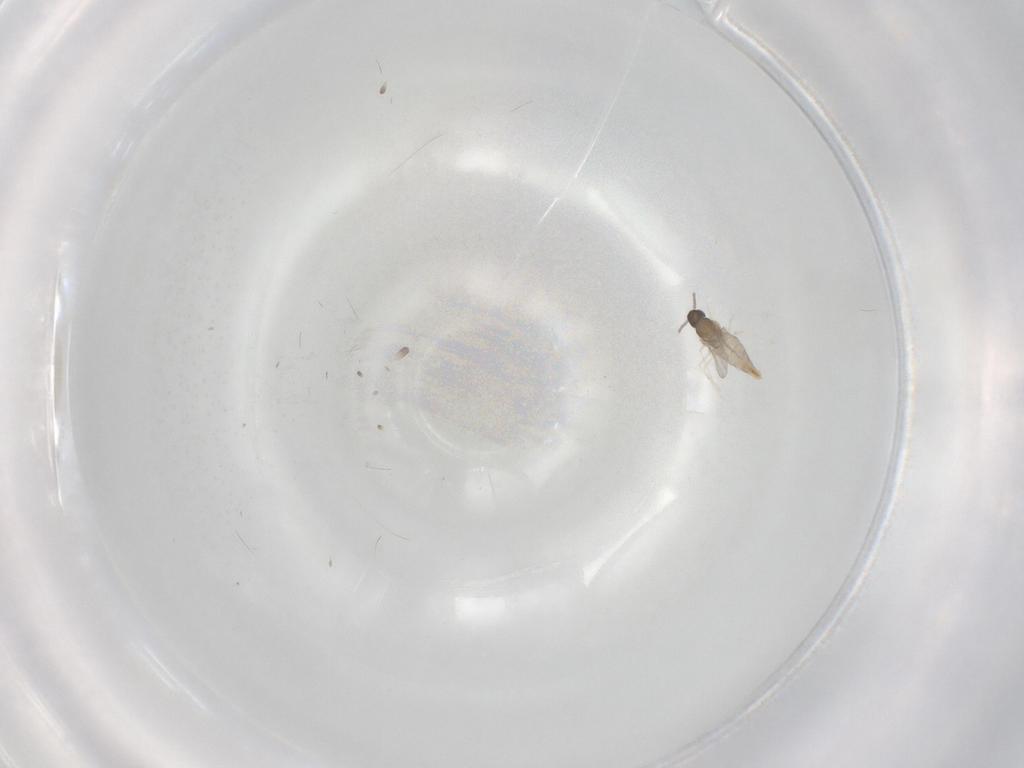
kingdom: Animalia
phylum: Arthropoda
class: Insecta
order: Diptera
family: Cecidomyiidae
